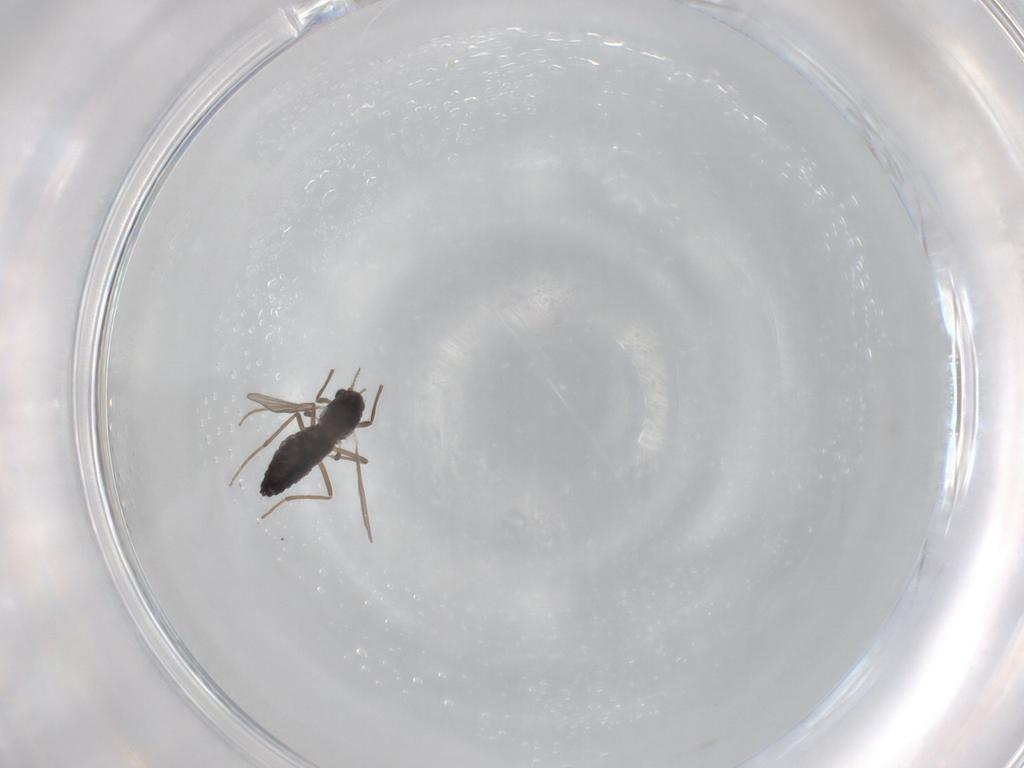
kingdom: Animalia
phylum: Arthropoda
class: Insecta
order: Diptera
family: Chironomidae
